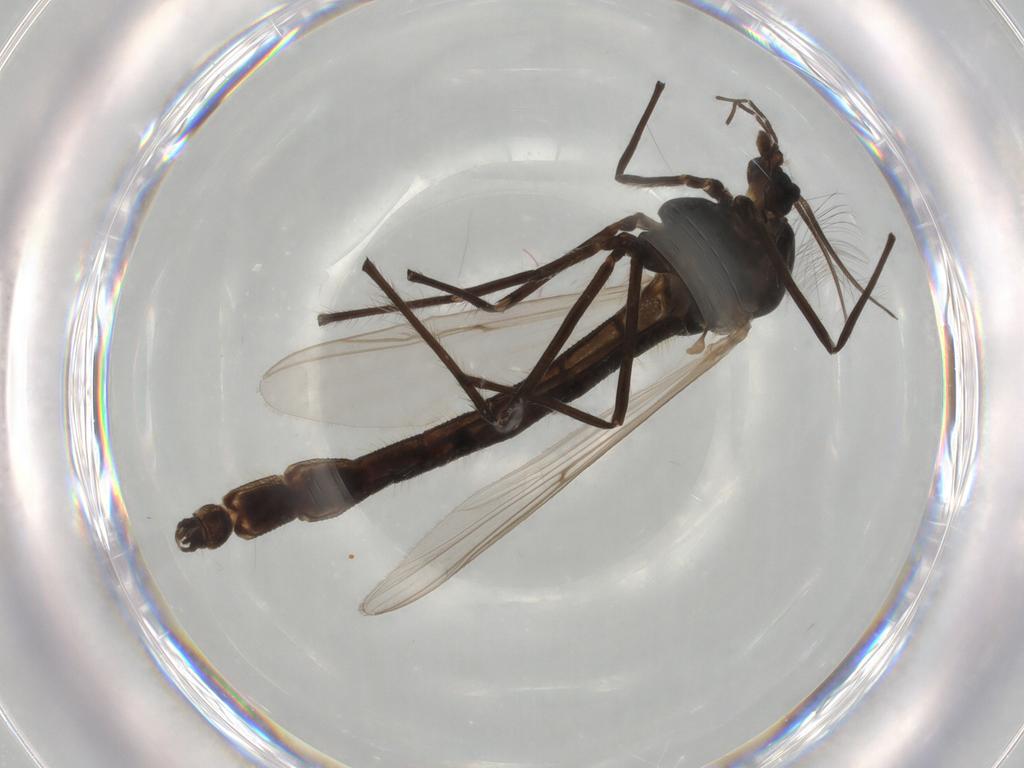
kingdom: Animalia
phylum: Arthropoda
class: Insecta
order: Diptera
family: Chironomidae
